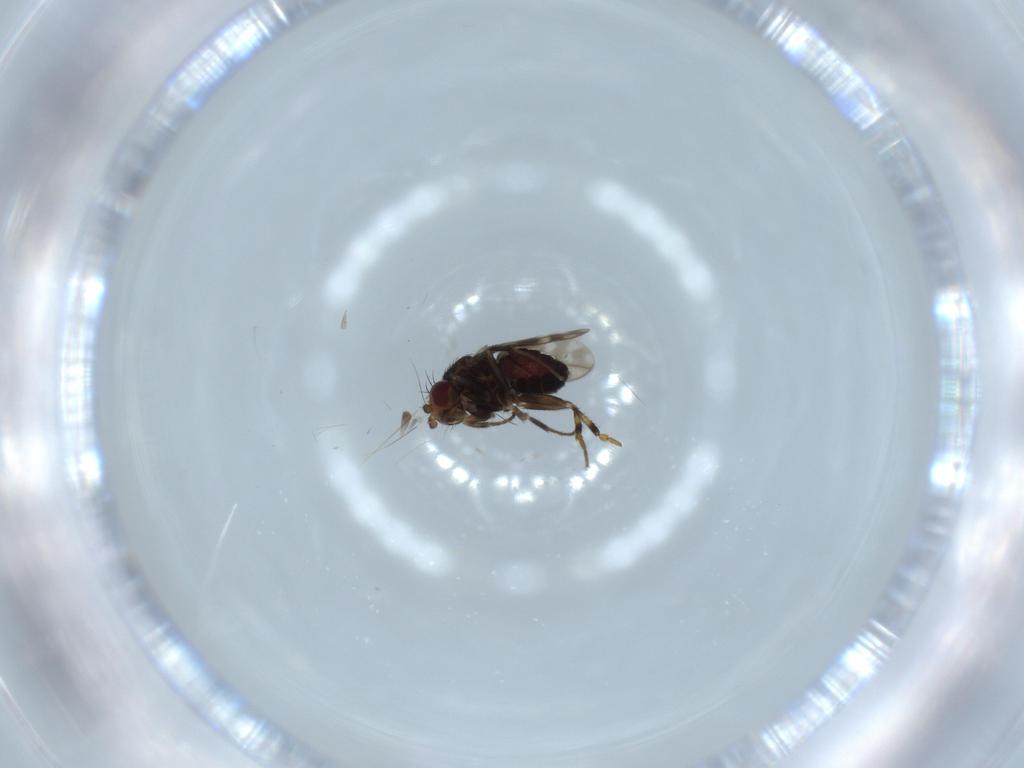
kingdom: Animalia
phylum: Arthropoda
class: Insecta
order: Diptera
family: Sphaeroceridae
